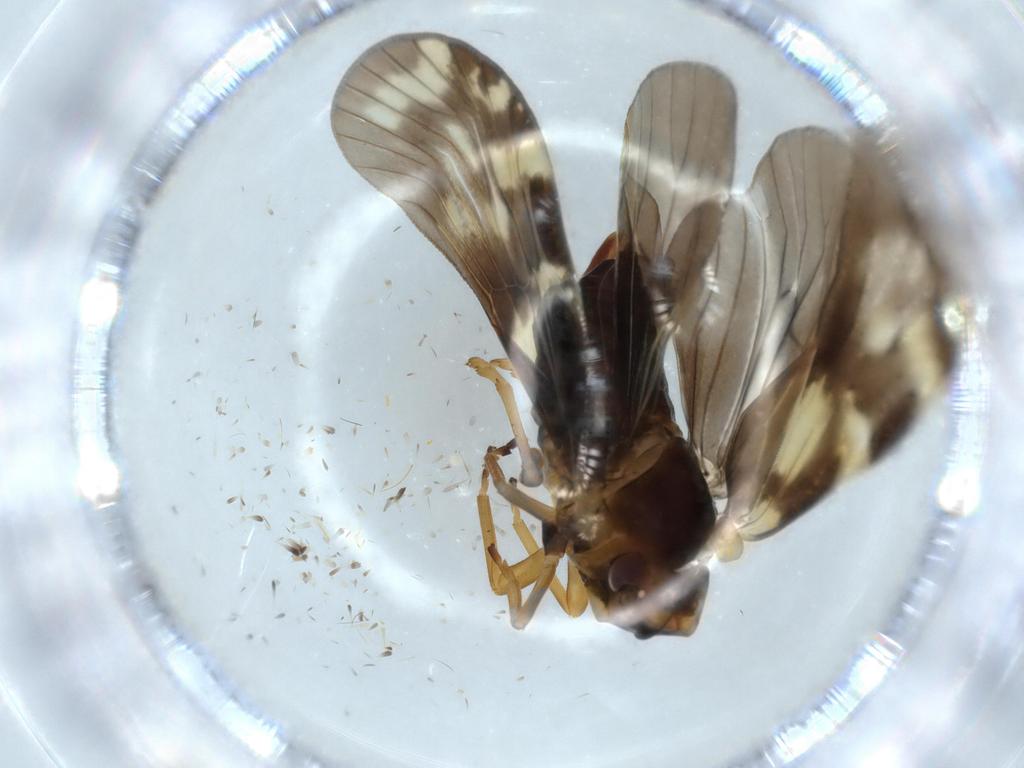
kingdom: Animalia
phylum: Arthropoda
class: Insecta
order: Hemiptera
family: Cixiidae
